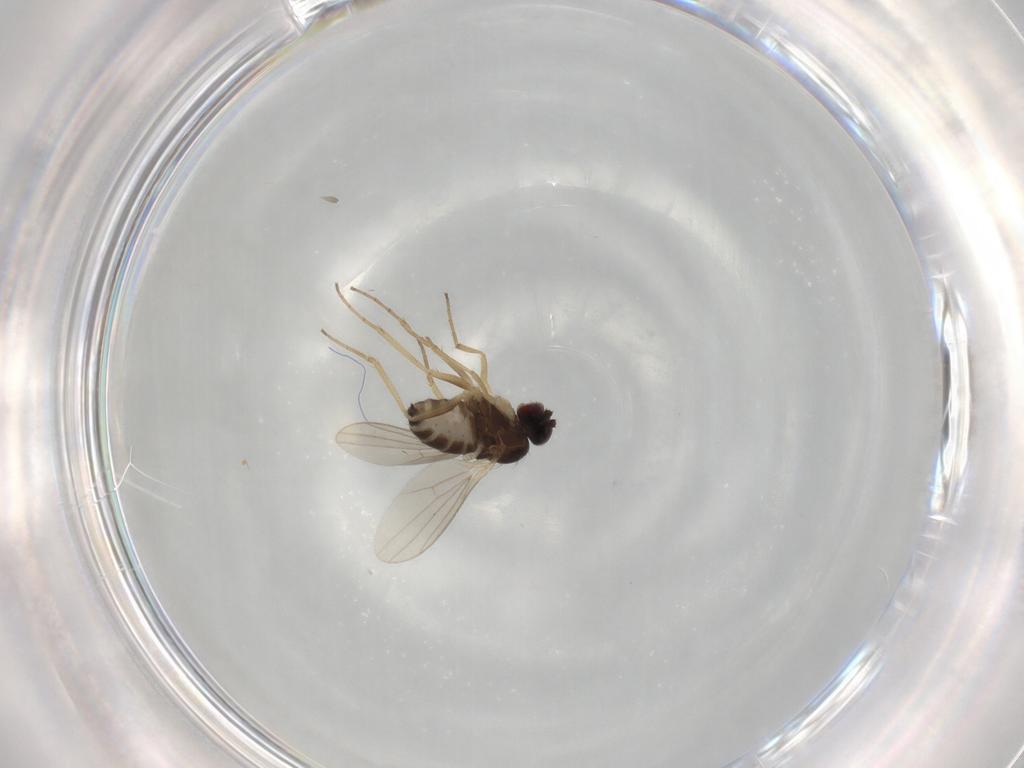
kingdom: Animalia
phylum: Arthropoda
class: Insecta
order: Diptera
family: Dolichopodidae
